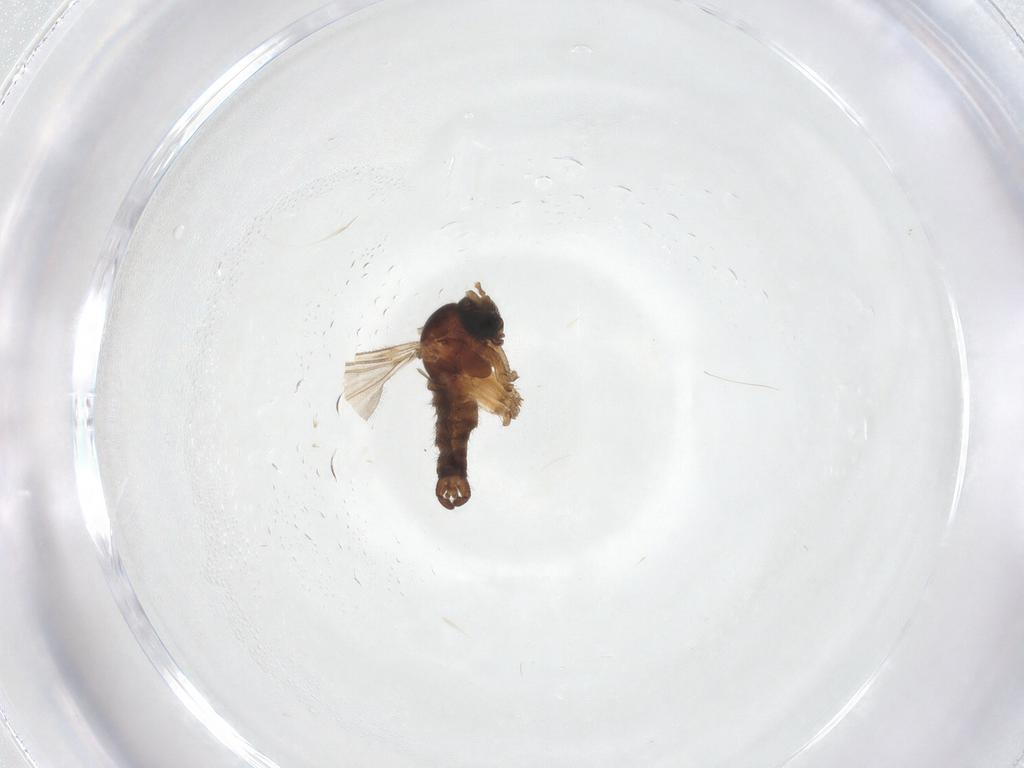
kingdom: Animalia
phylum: Arthropoda
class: Insecta
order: Diptera
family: Sciaridae
